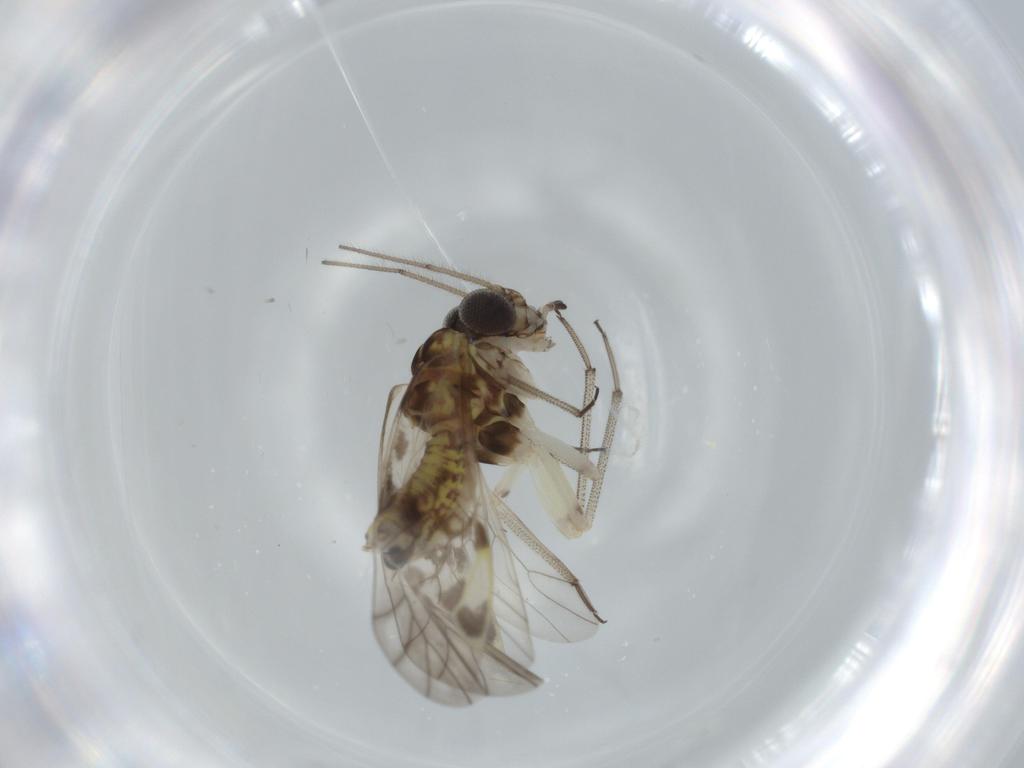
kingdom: Animalia
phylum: Arthropoda
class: Insecta
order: Psocodea
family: Caeciliusidae
